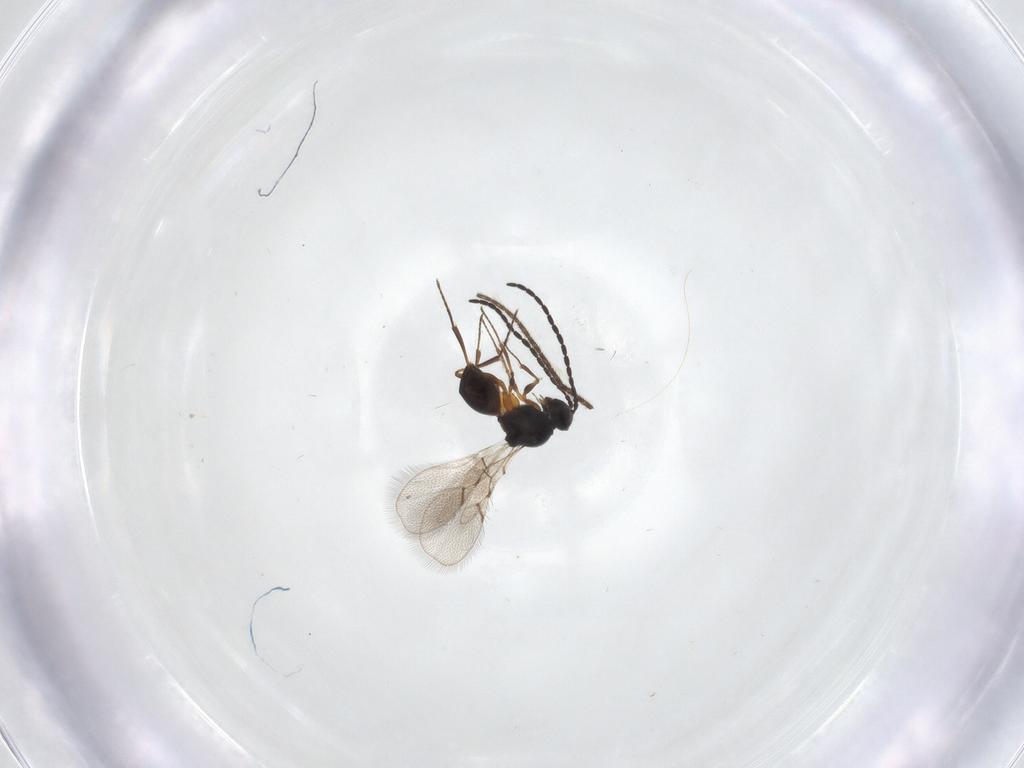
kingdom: Animalia
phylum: Arthropoda
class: Insecta
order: Hymenoptera
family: Figitidae
